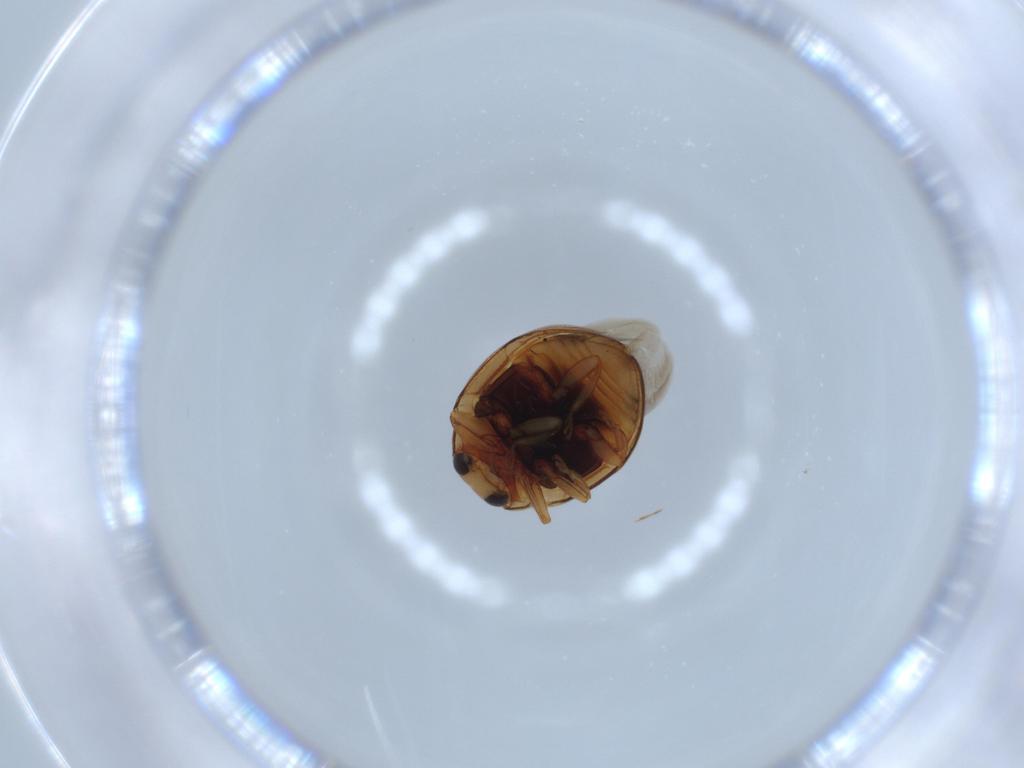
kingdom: Animalia
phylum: Arthropoda
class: Insecta
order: Coleoptera
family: Coccinellidae
